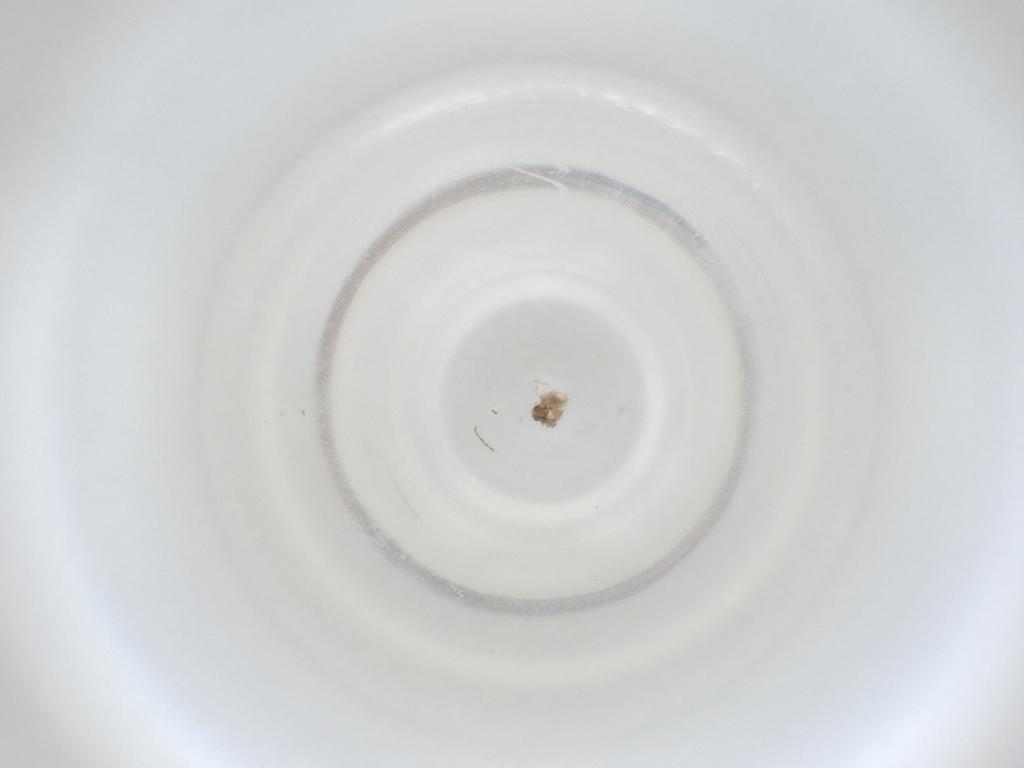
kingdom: Animalia
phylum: Arthropoda
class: Insecta
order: Diptera
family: Cecidomyiidae
